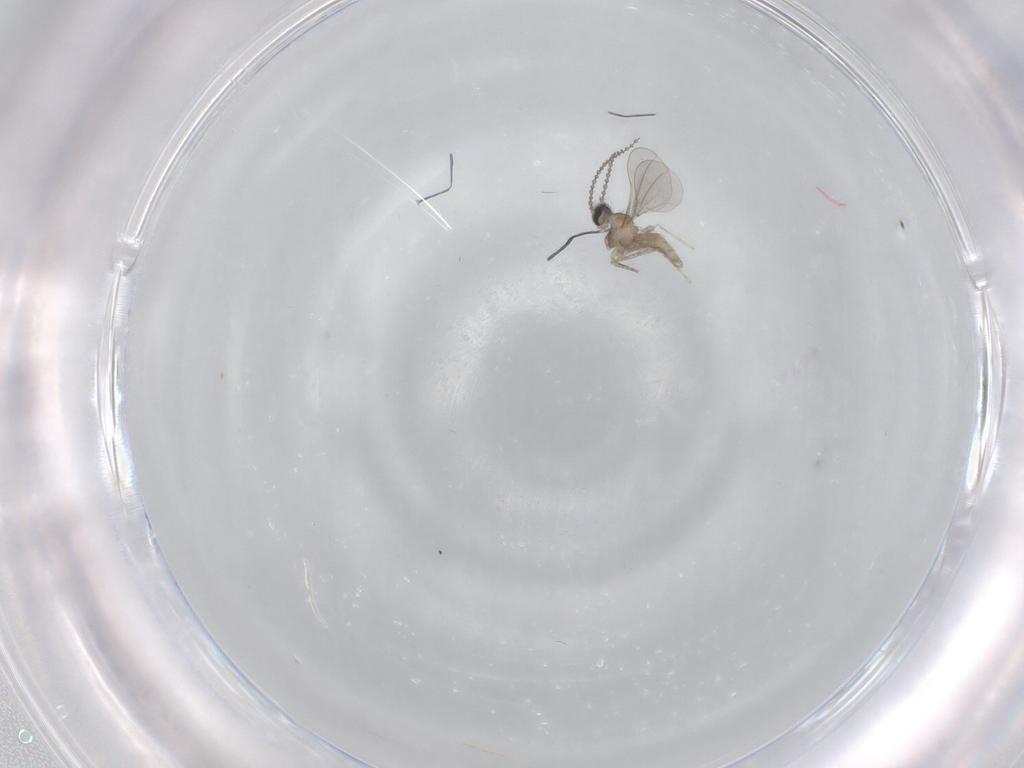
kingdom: Animalia
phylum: Arthropoda
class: Insecta
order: Diptera
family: Cecidomyiidae
